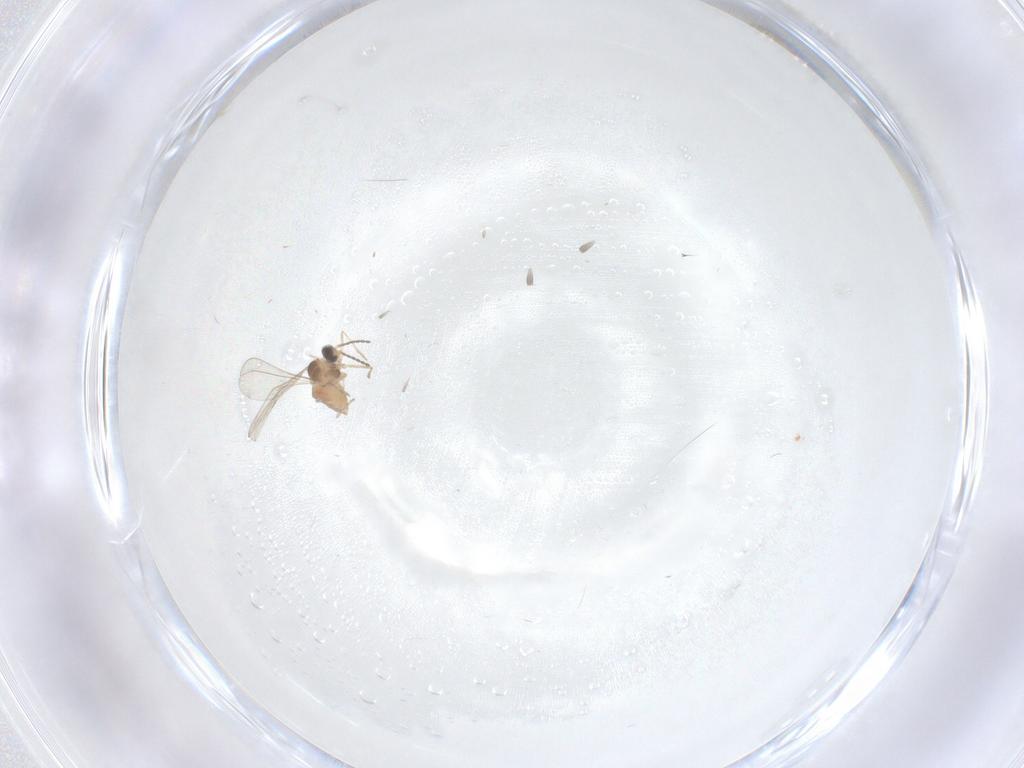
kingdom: Animalia
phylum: Arthropoda
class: Insecta
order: Diptera
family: Cecidomyiidae
